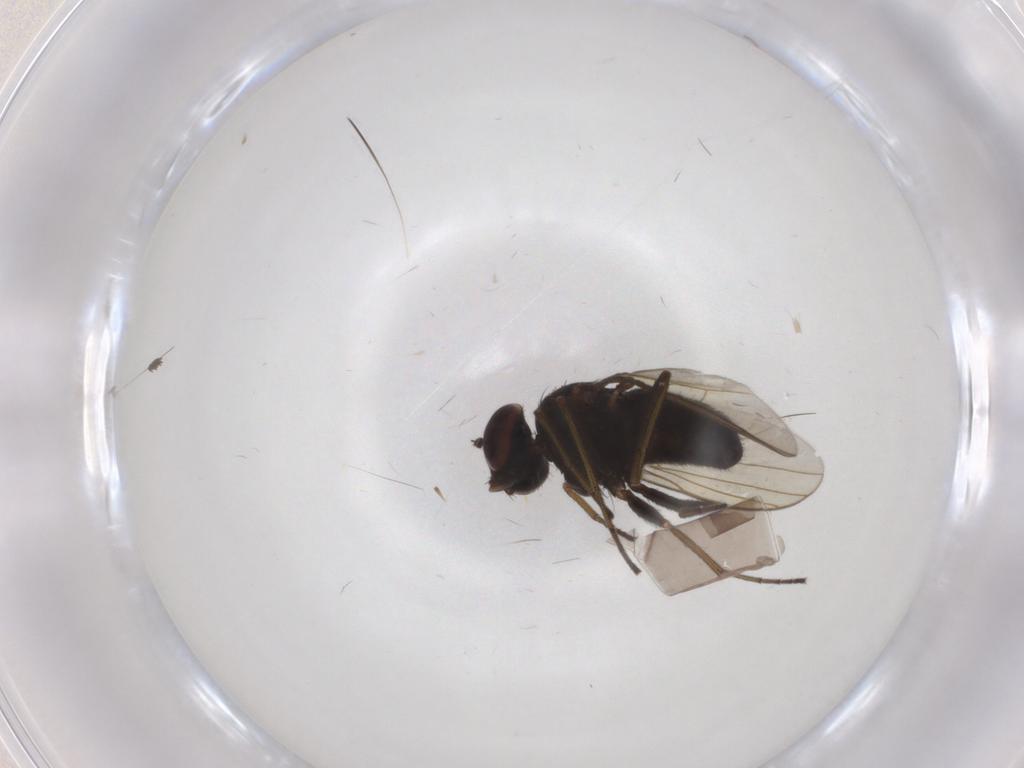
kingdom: Animalia
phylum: Arthropoda
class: Insecta
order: Diptera
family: Dolichopodidae
